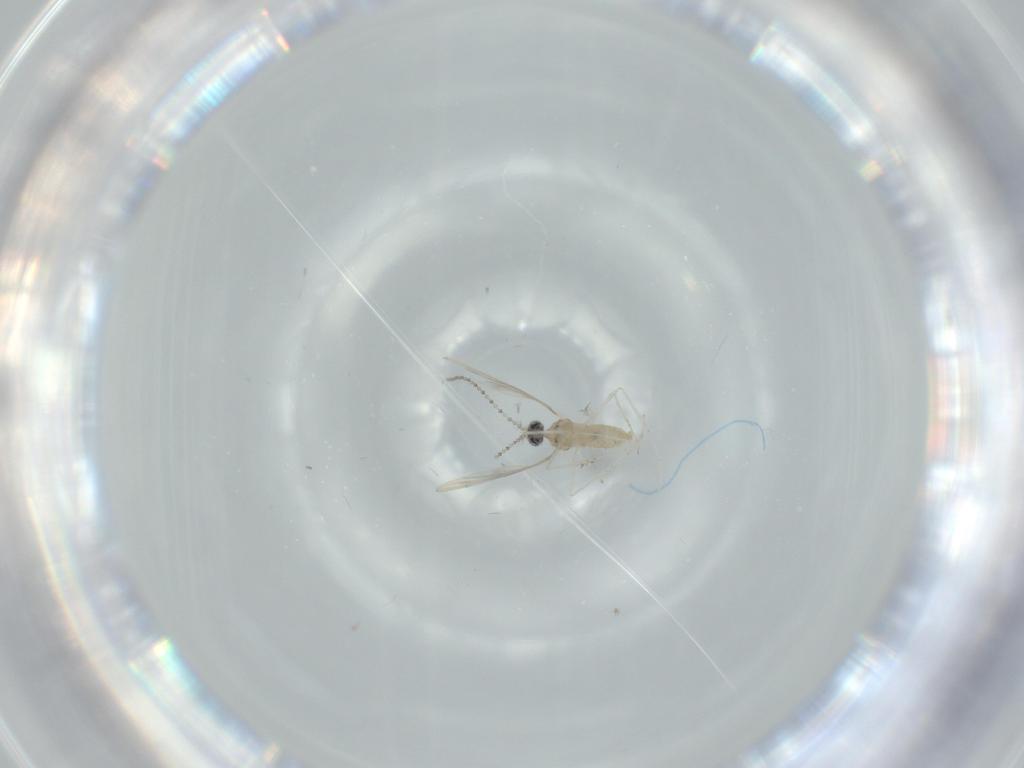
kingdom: Animalia
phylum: Arthropoda
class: Insecta
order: Diptera
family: Cecidomyiidae
